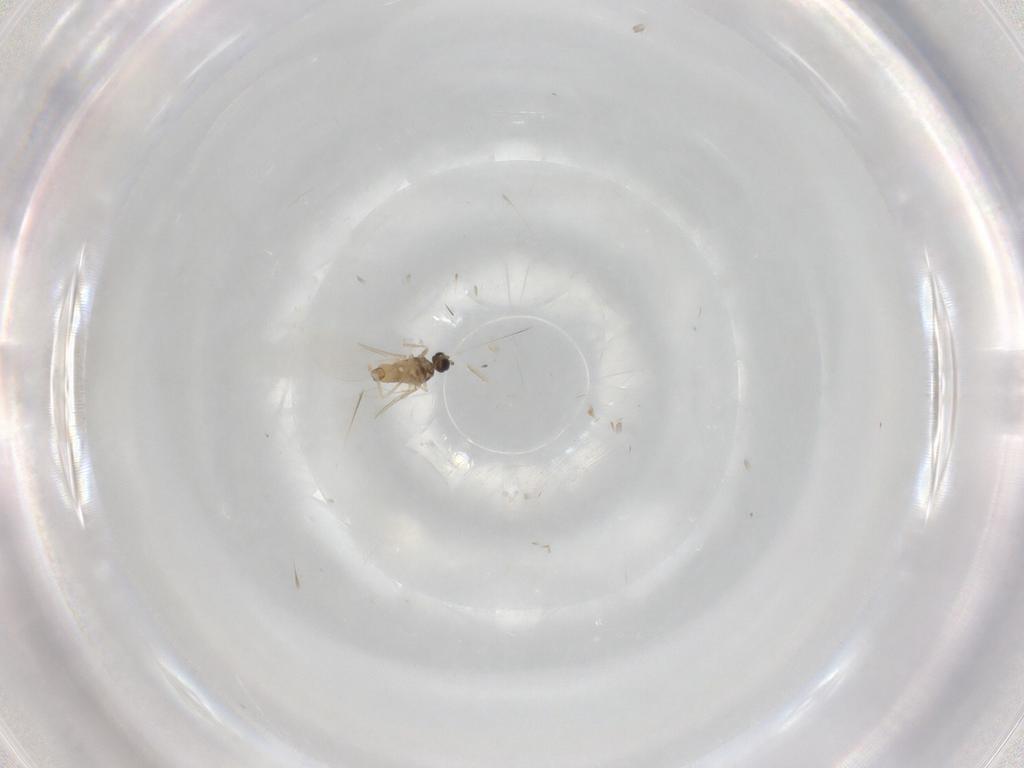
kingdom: Animalia
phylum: Arthropoda
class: Insecta
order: Diptera
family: Cecidomyiidae
